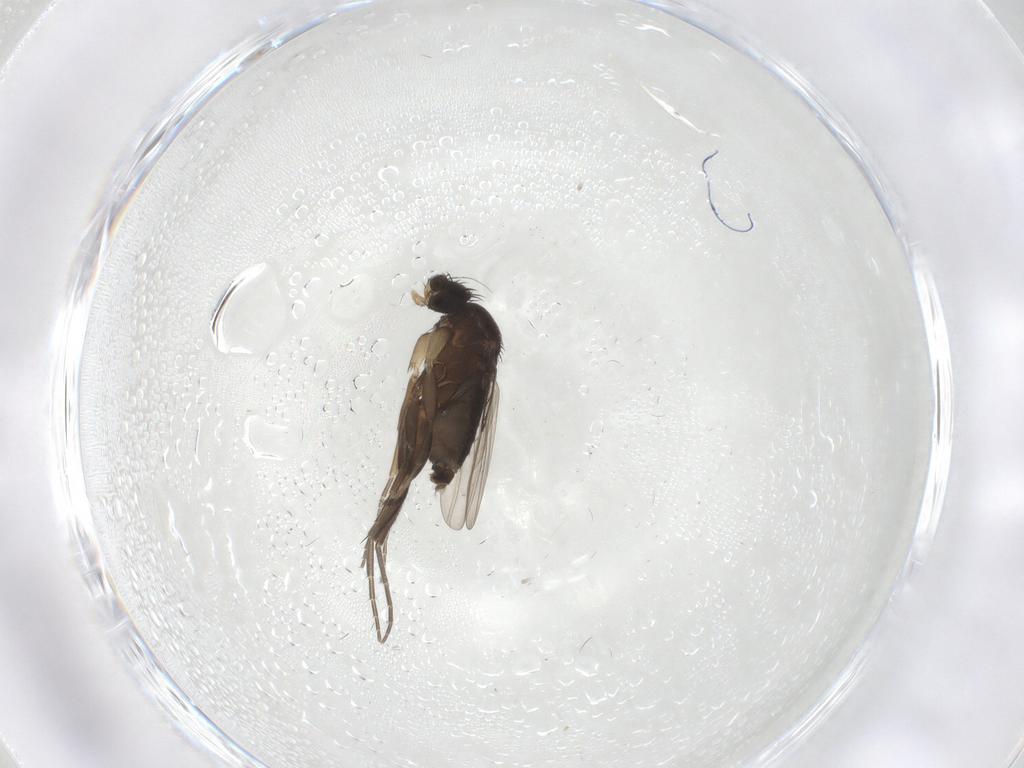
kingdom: Animalia
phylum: Arthropoda
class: Insecta
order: Diptera
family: Phoridae
